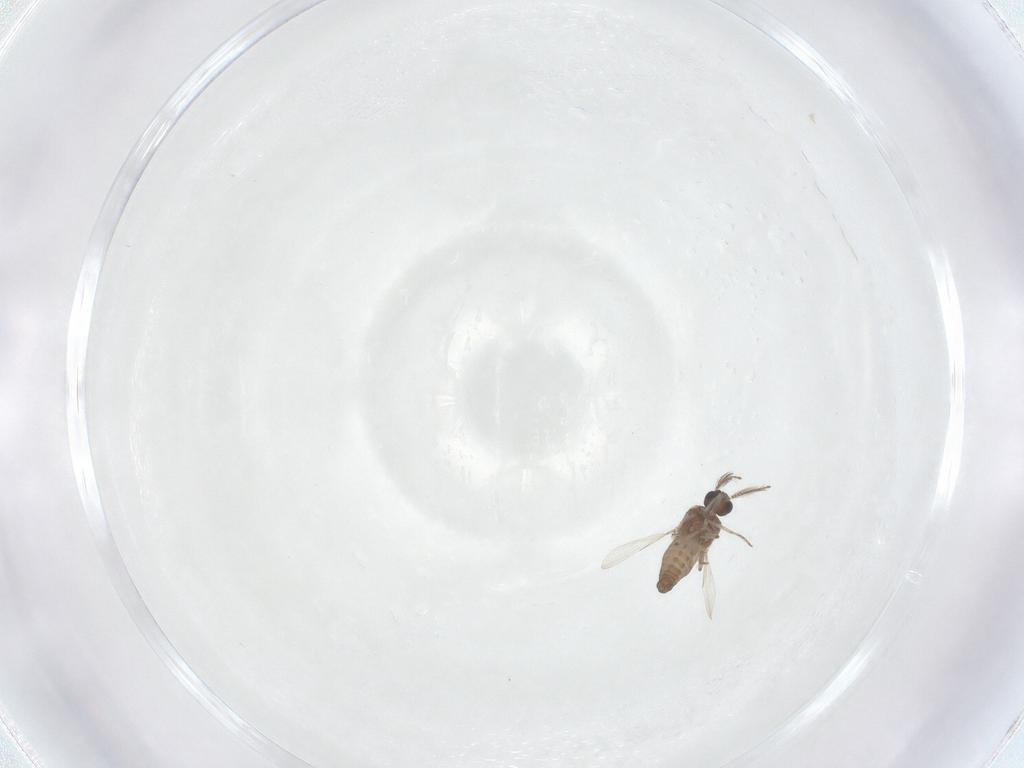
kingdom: Animalia
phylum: Arthropoda
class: Insecta
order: Diptera
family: Ceratopogonidae
